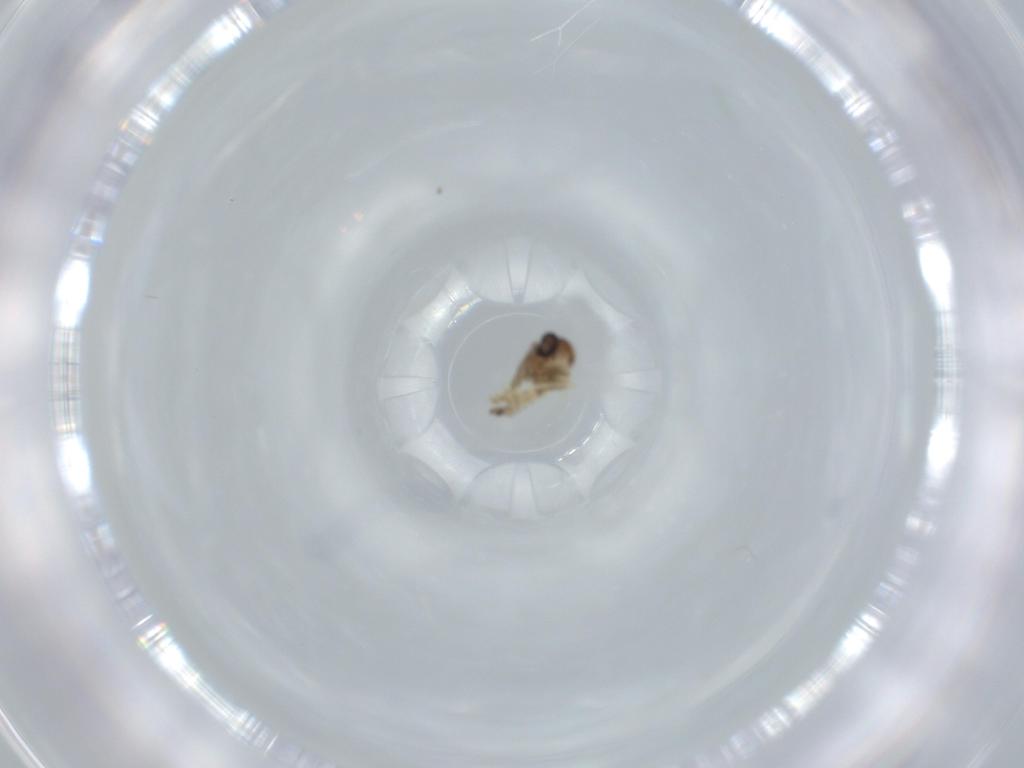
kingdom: Animalia
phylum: Arthropoda
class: Insecta
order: Diptera
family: Ceratopogonidae
